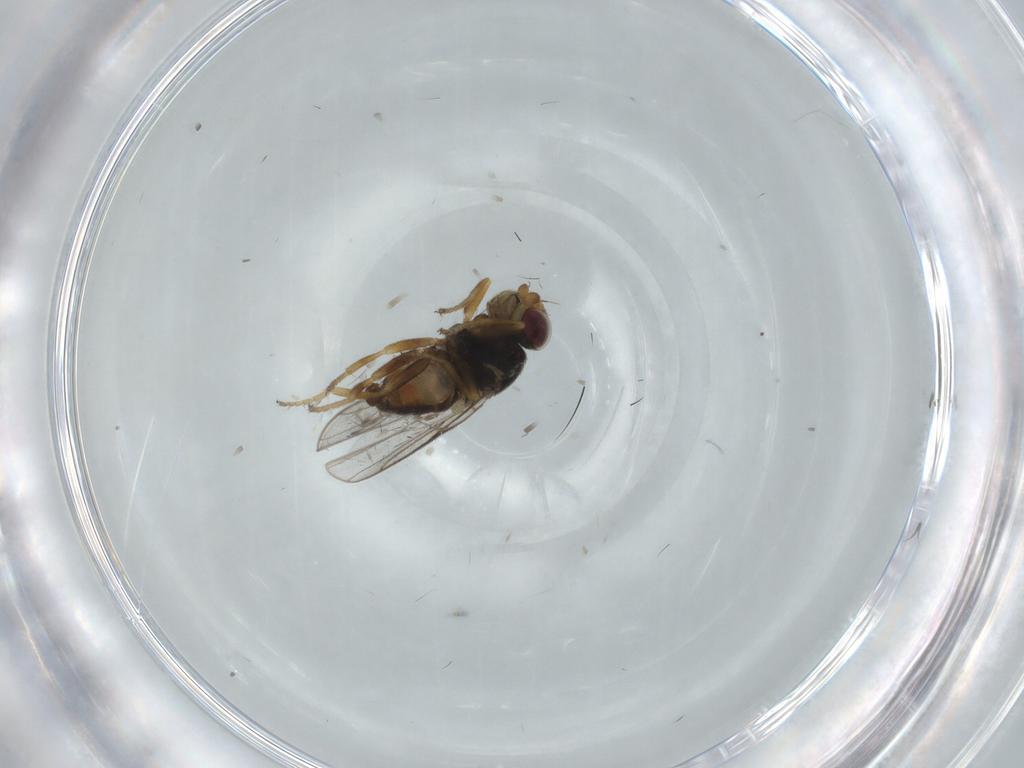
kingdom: Animalia
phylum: Arthropoda
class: Insecta
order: Diptera
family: Chloropidae
